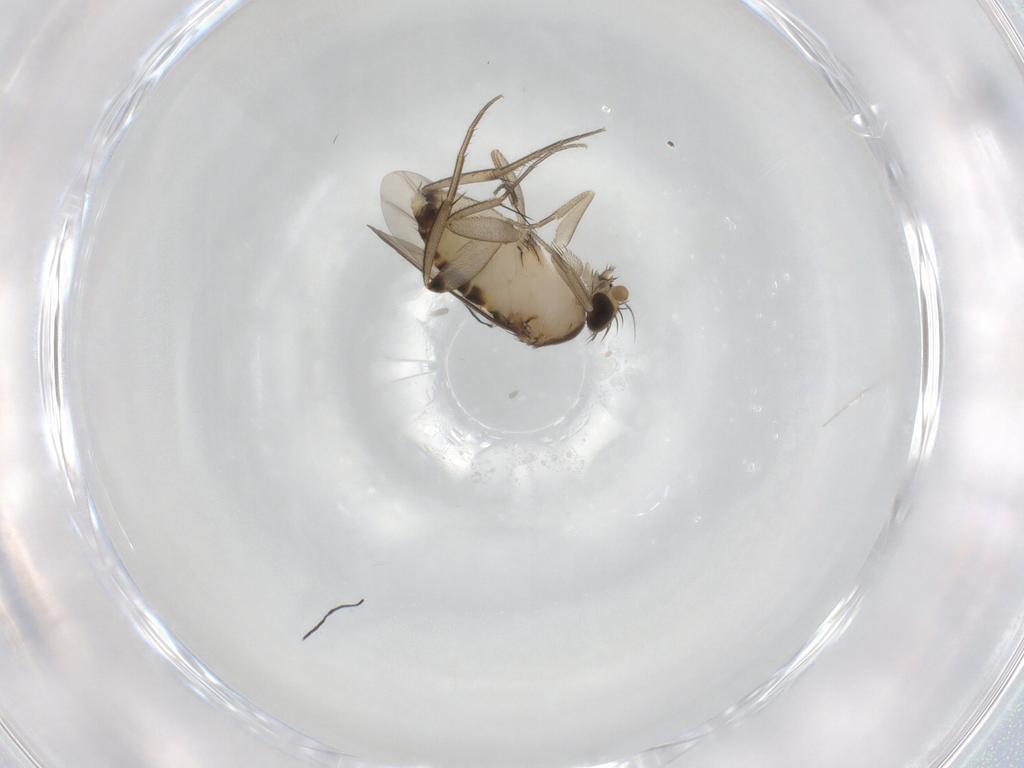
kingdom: Animalia
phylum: Arthropoda
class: Insecta
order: Diptera
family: Phoridae
